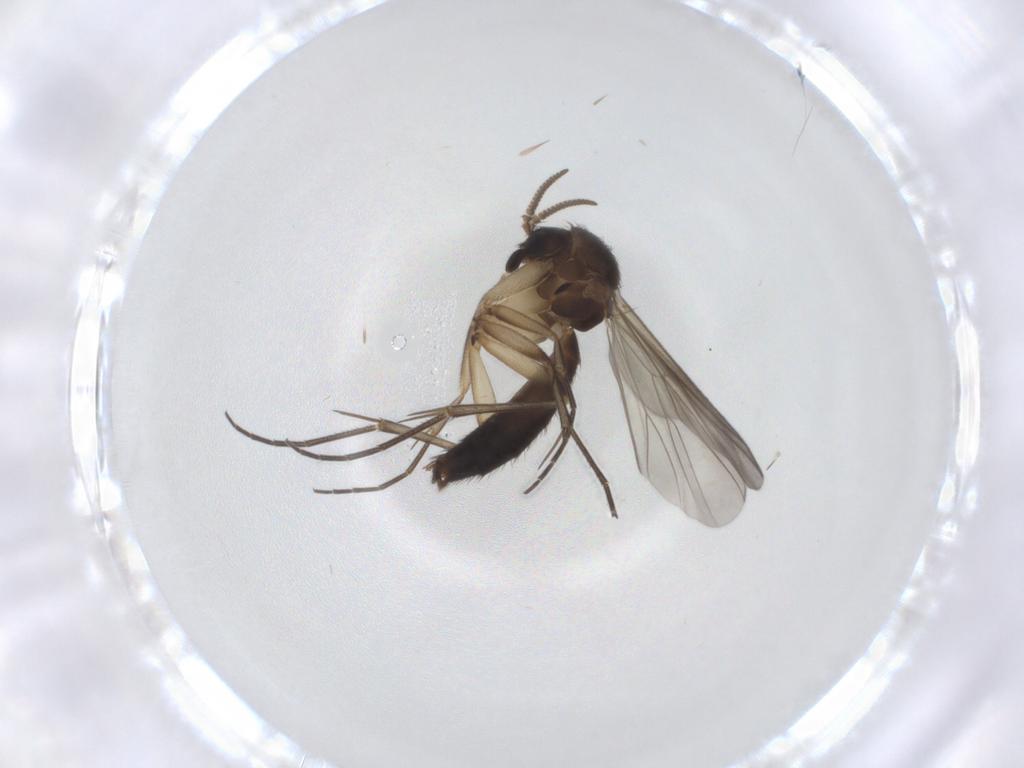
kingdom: Animalia
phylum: Arthropoda
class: Insecta
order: Diptera
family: Mycetophilidae
